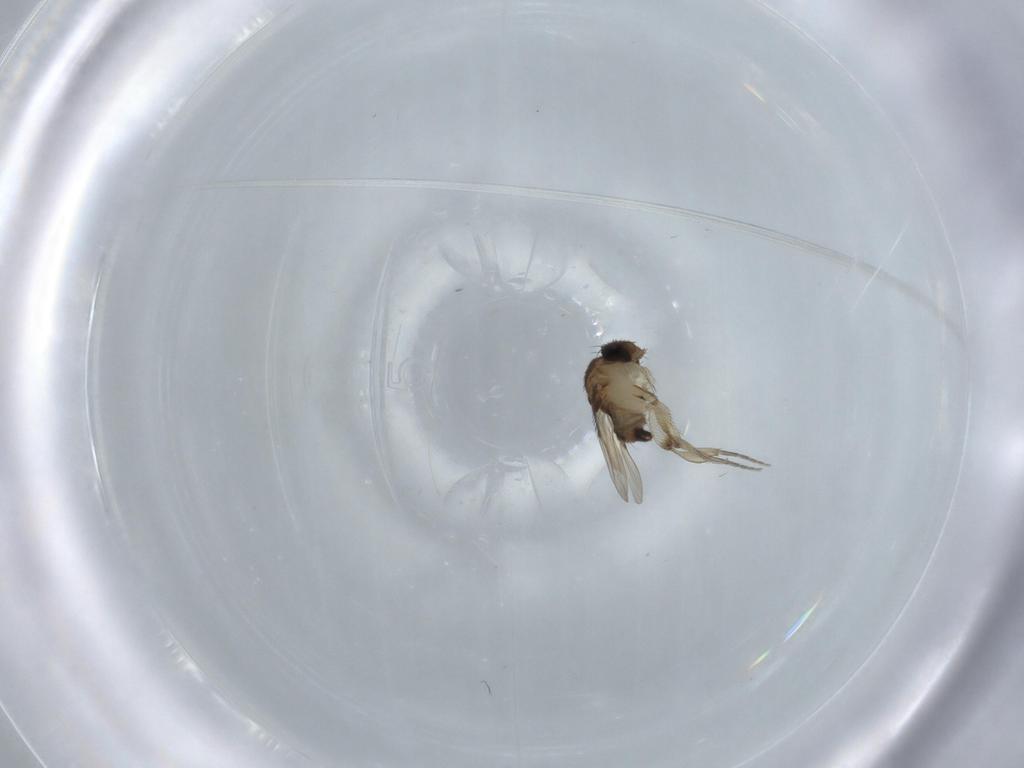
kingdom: Animalia
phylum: Arthropoda
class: Insecta
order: Diptera
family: Phoridae
